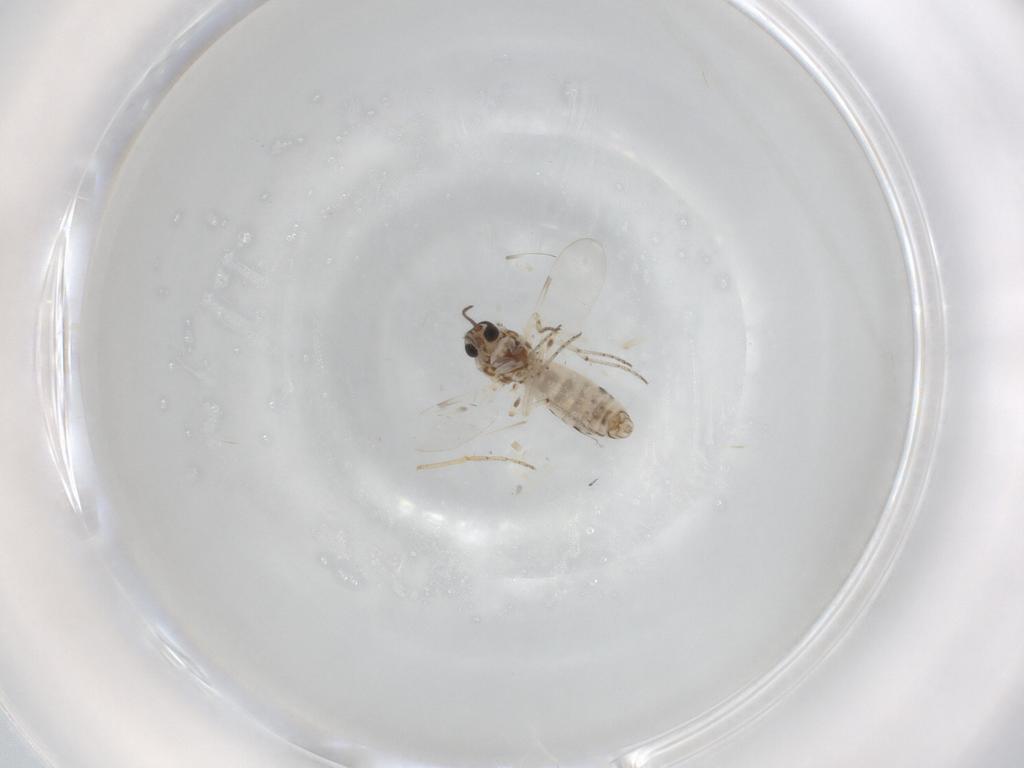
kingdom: Animalia
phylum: Arthropoda
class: Insecta
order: Diptera
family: Ceratopogonidae
